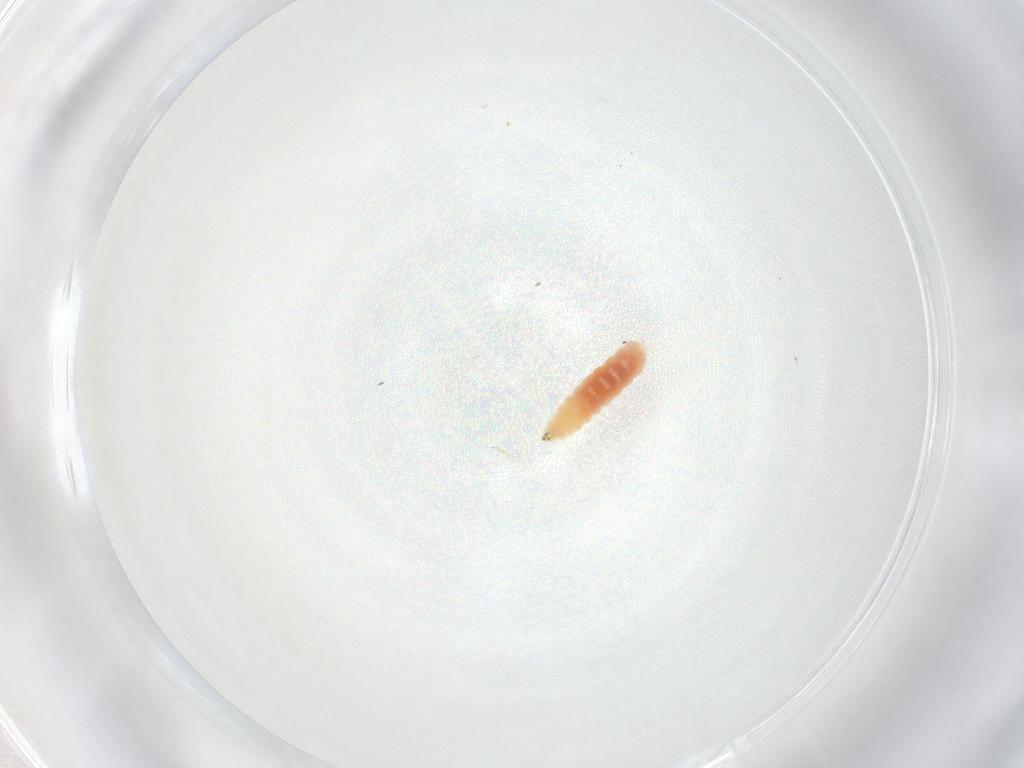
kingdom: Animalia
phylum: Arthropoda
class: Insecta
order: Diptera
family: Cecidomyiidae
